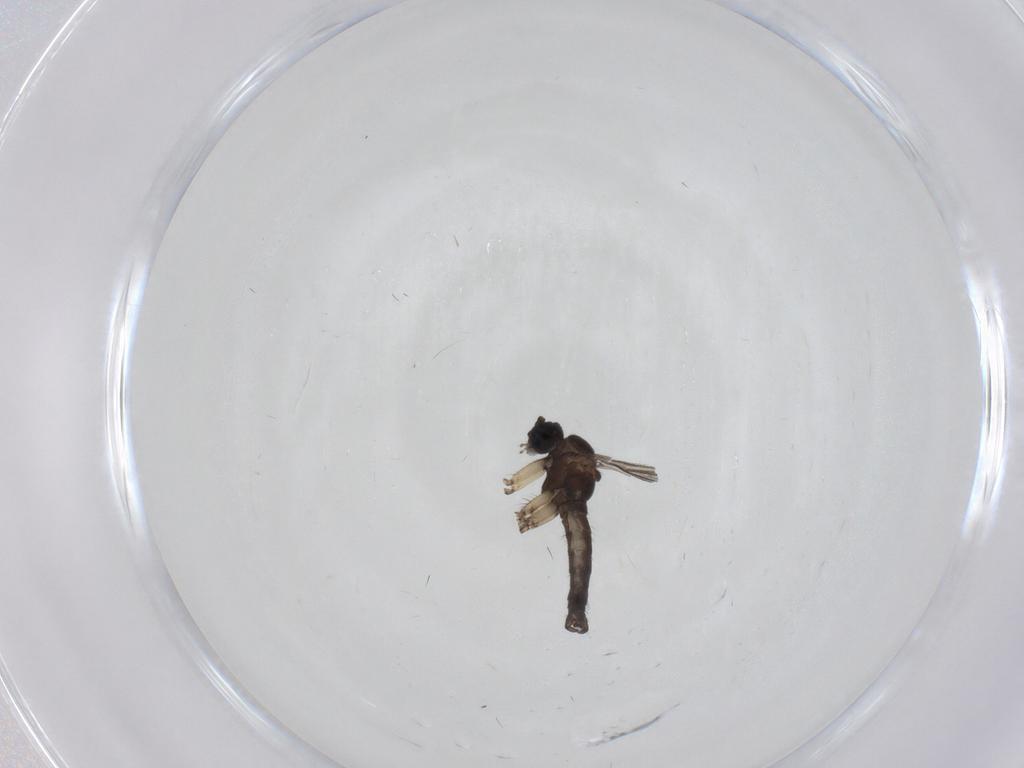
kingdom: Animalia
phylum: Arthropoda
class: Insecta
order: Diptera
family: Sciaridae
